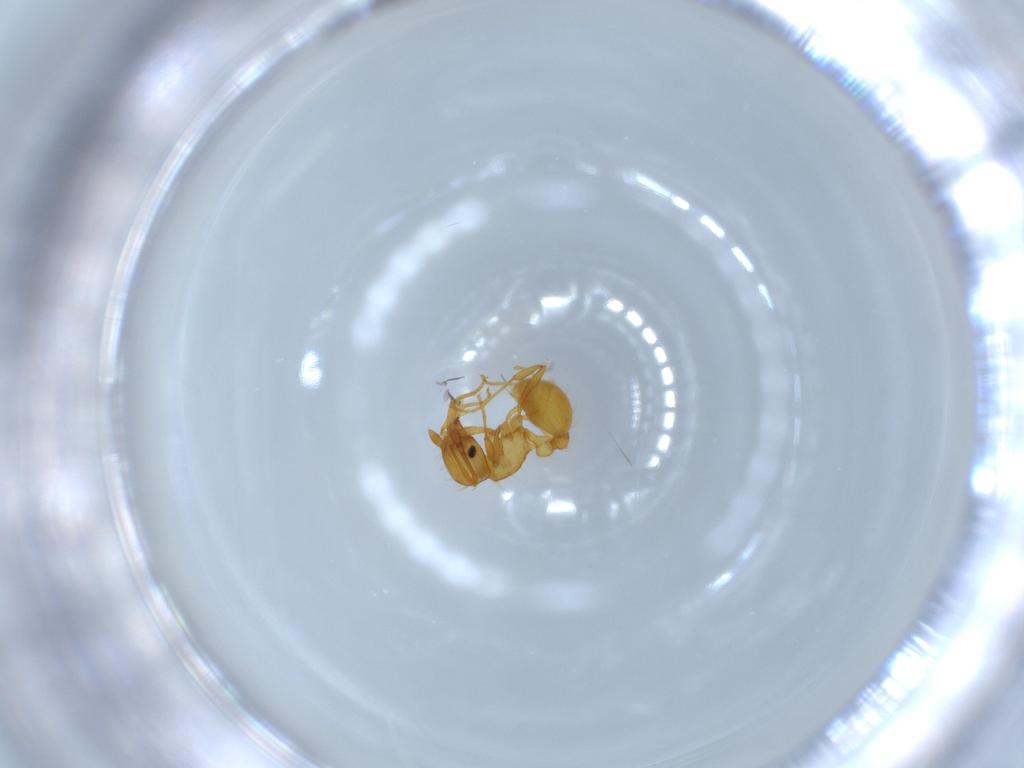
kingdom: Animalia
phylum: Arthropoda
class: Insecta
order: Hymenoptera
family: Formicidae
